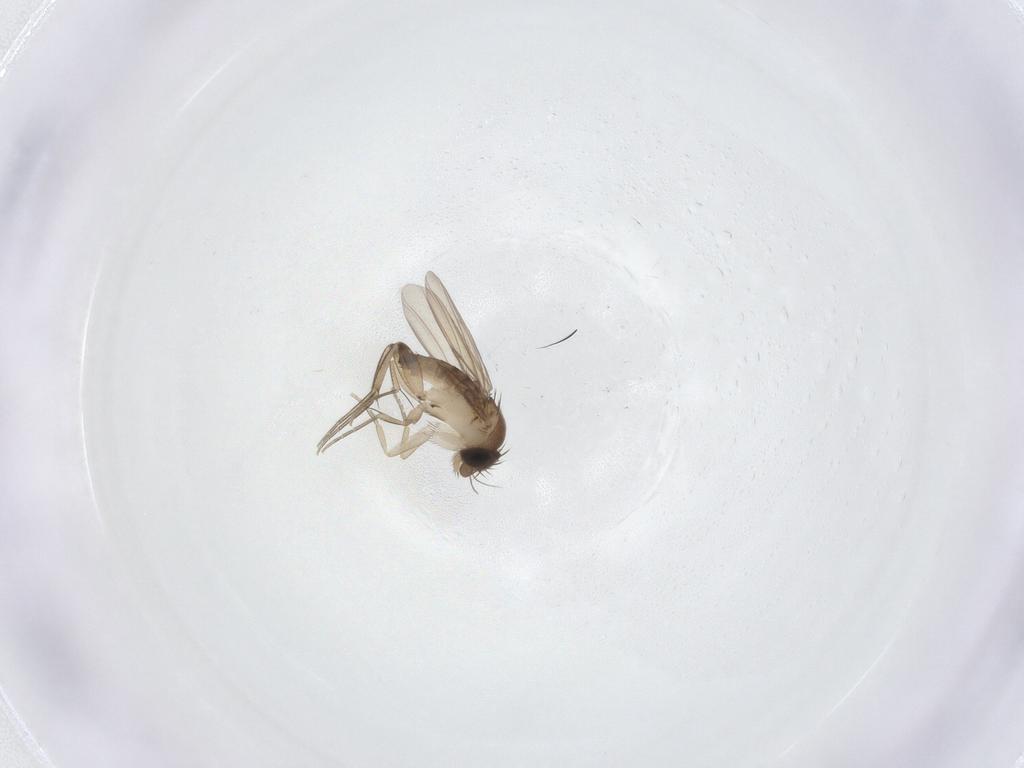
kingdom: Animalia
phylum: Arthropoda
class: Insecta
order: Diptera
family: Phoridae
